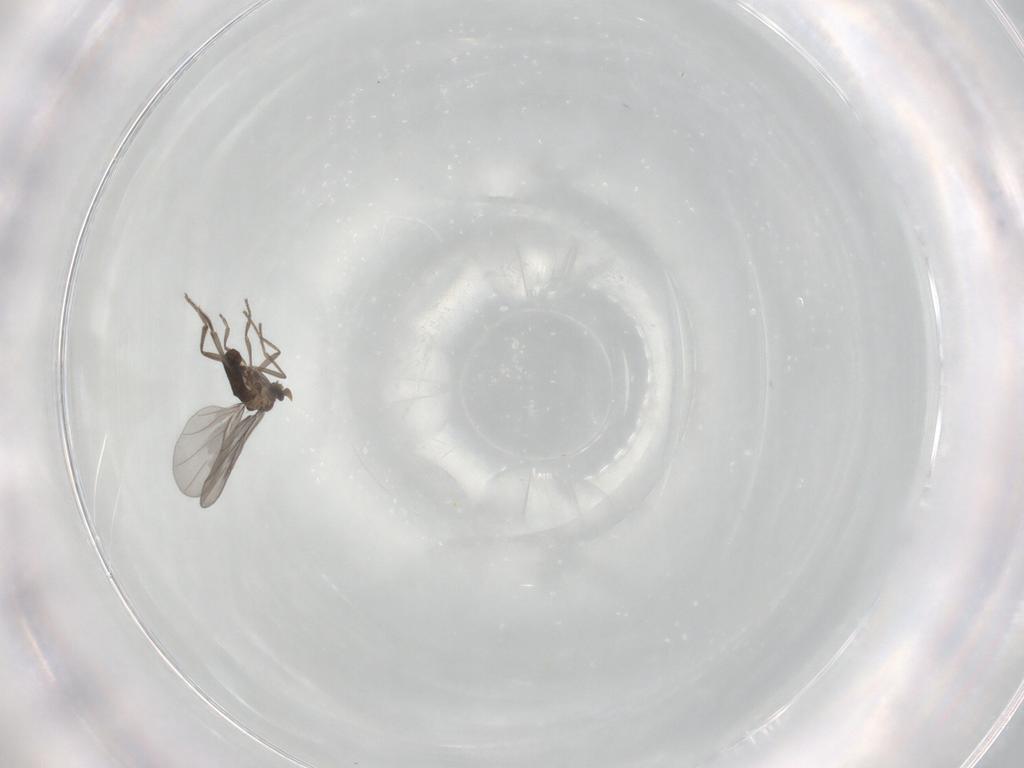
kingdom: Animalia
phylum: Arthropoda
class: Insecta
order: Diptera
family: Phoridae
